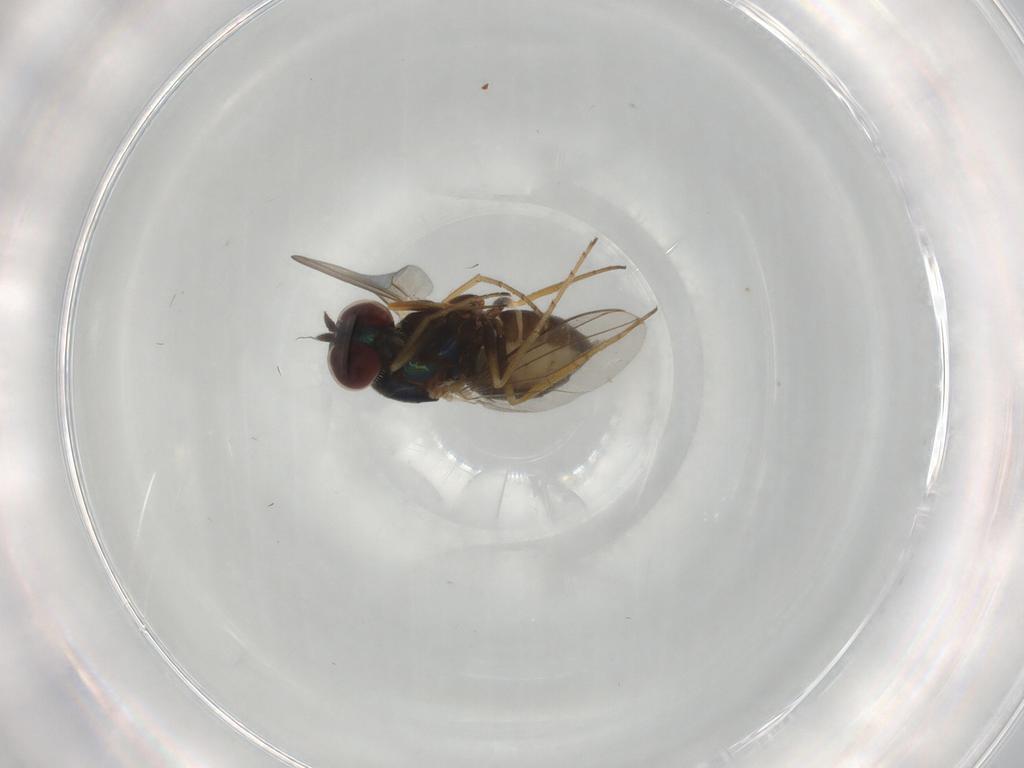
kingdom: Animalia
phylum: Arthropoda
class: Insecta
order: Diptera
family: Dolichopodidae
